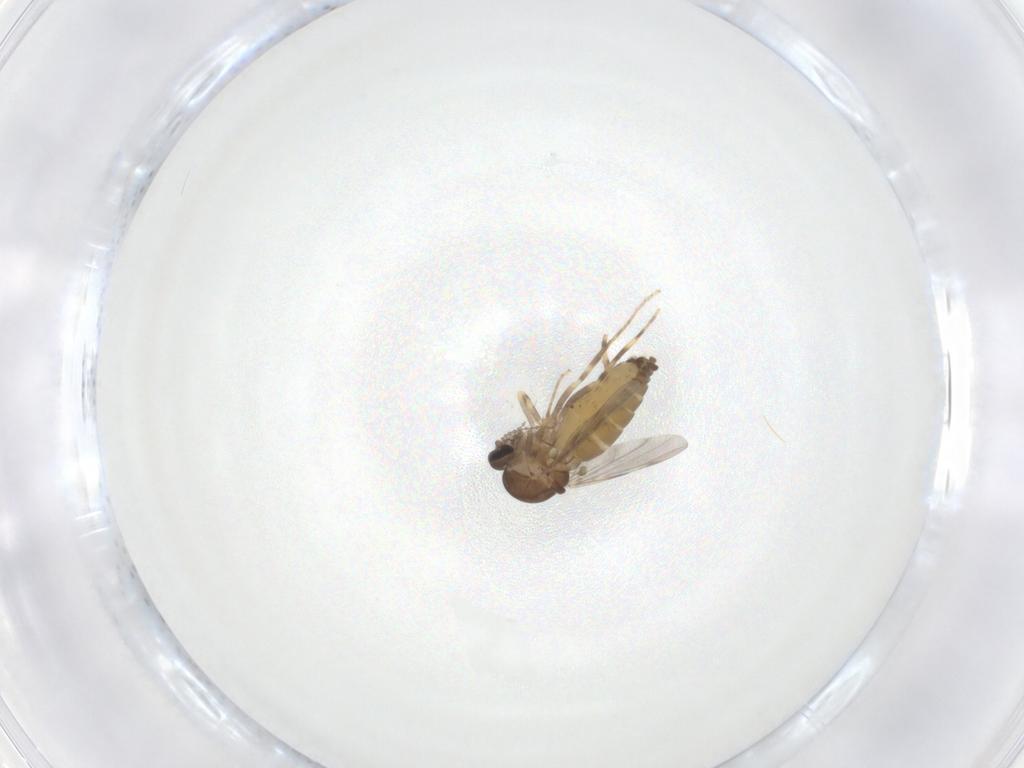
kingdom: Animalia
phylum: Arthropoda
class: Insecta
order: Diptera
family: Ceratopogonidae
